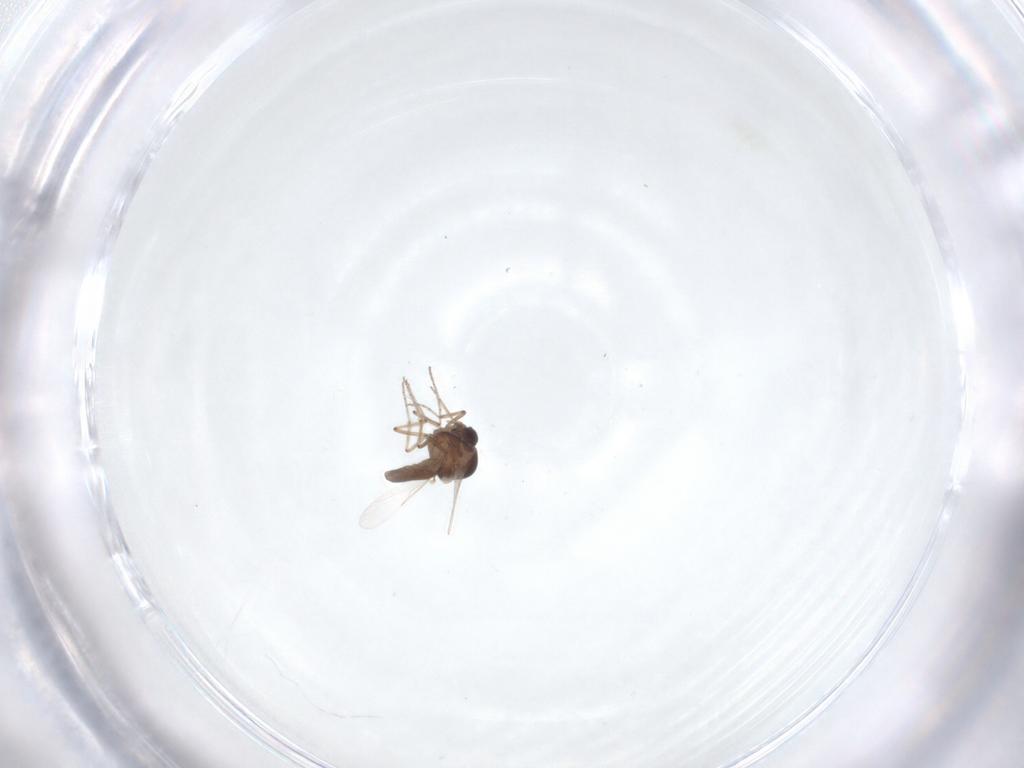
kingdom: Animalia
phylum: Arthropoda
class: Insecta
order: Diptera
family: Ceratopogonidae
